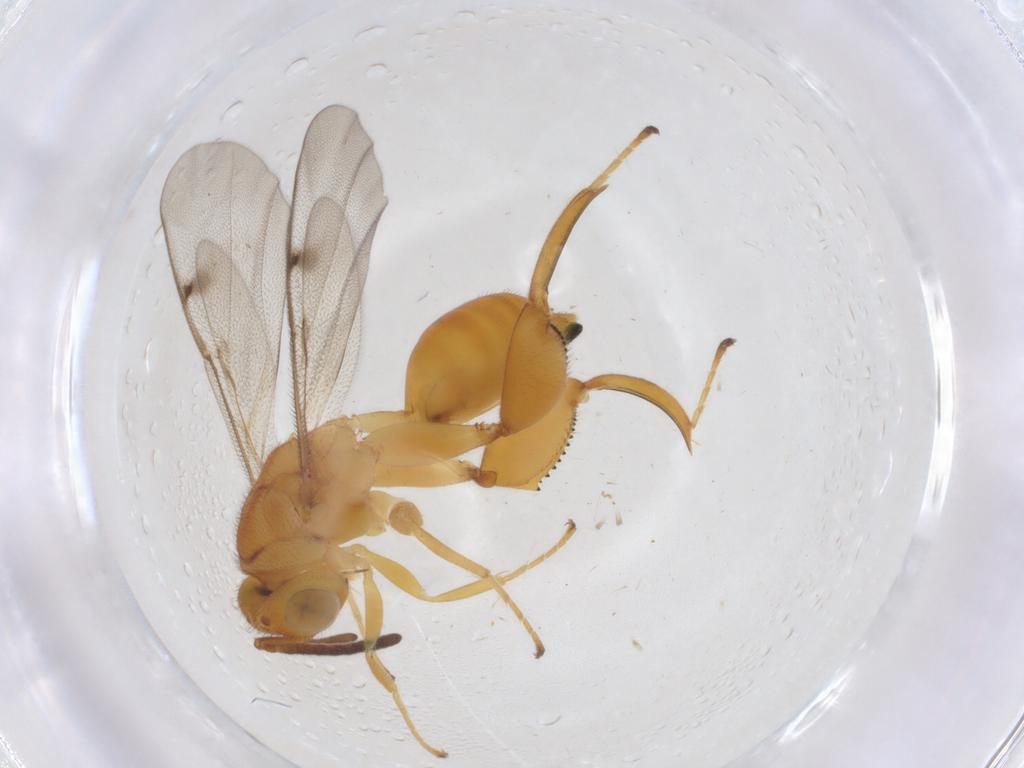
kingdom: Animalia
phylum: Arthropoda
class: Insecta
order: Hymenoptera
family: Chalcididae
